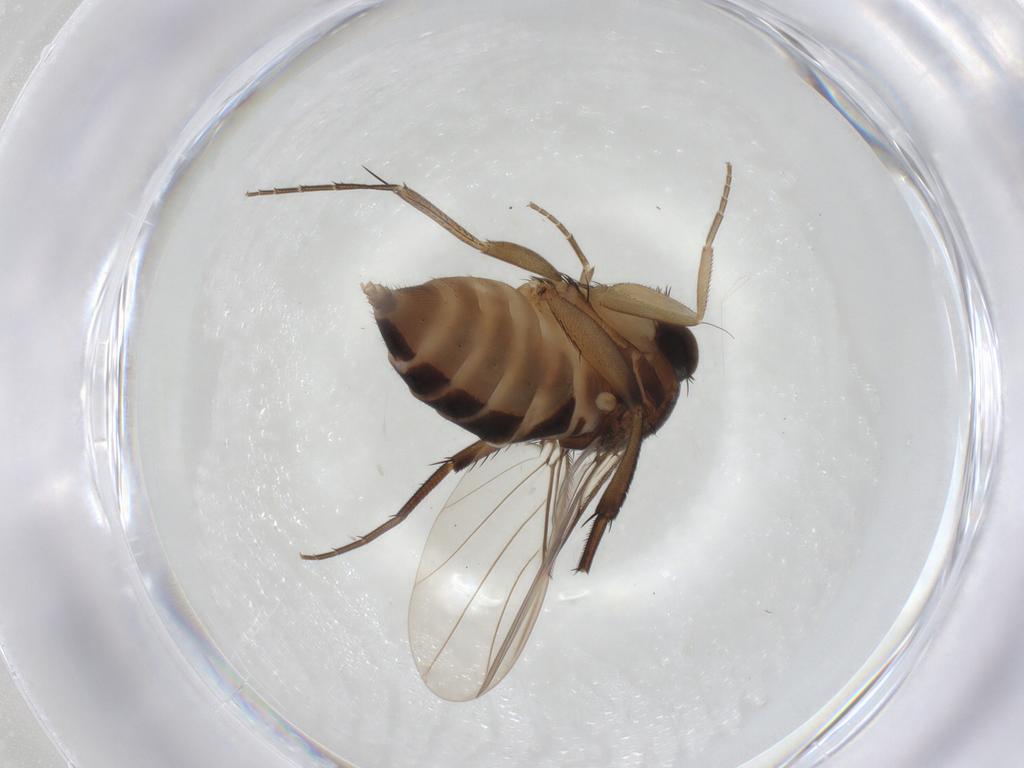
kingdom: Animalia
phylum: Arthropoda
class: Insecta
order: Diptera
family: Phoridae
